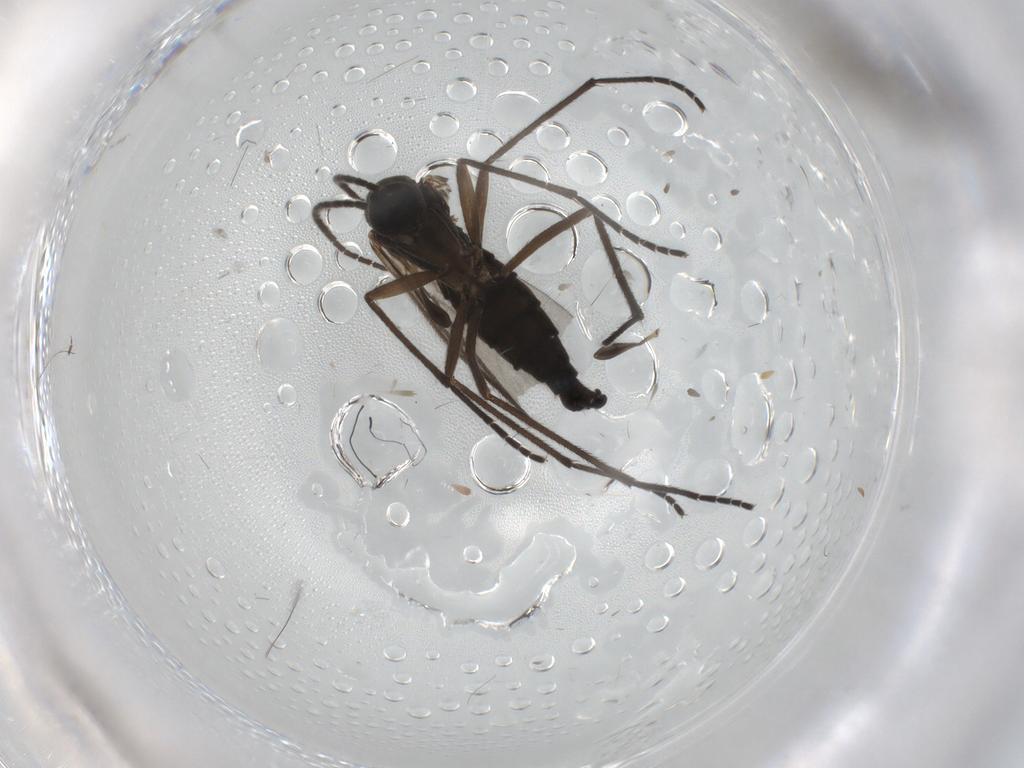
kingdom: Animalia
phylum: Arthropoda
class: Insecta
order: Diptera
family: Sciaridae
